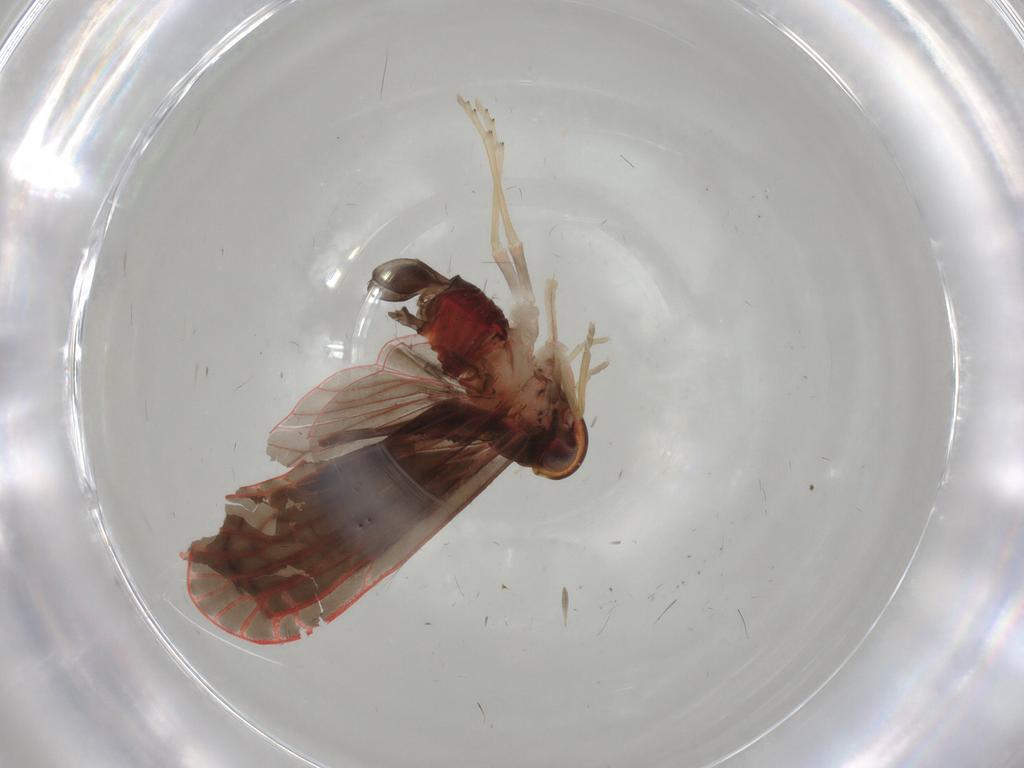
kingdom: Animalia
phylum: Arthropoda
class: Insecta
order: Hemiptera
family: Derbidae
